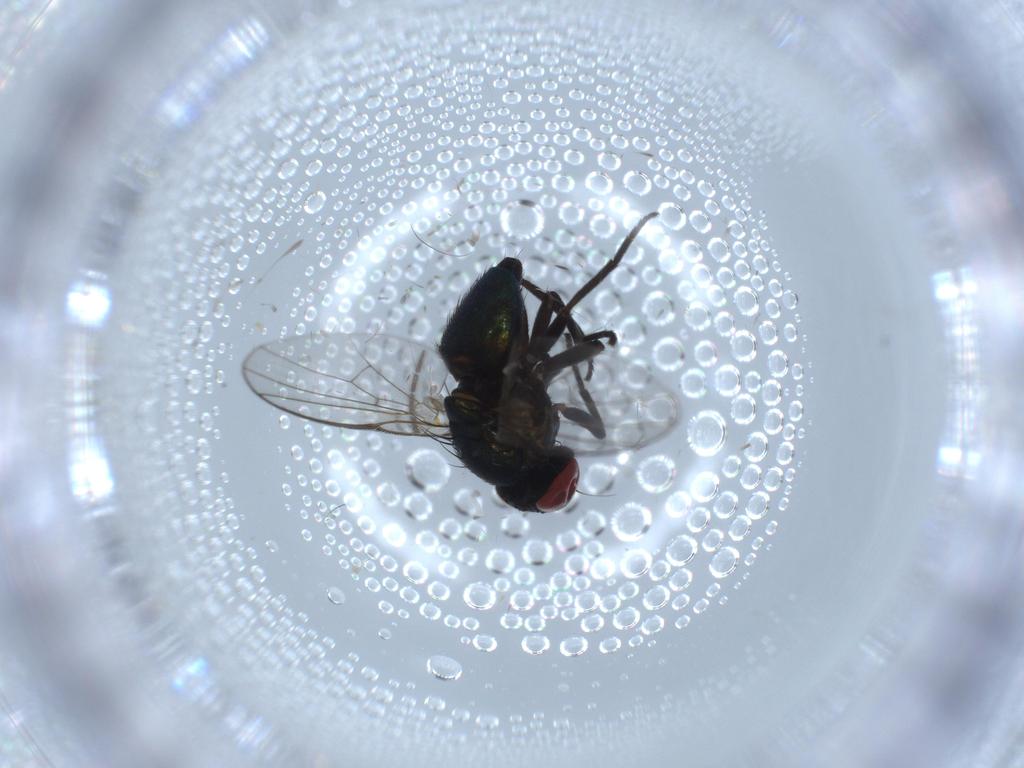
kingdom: Animalia
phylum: Arthropoda
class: Insecta
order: Diptera
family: Agromyzidae
